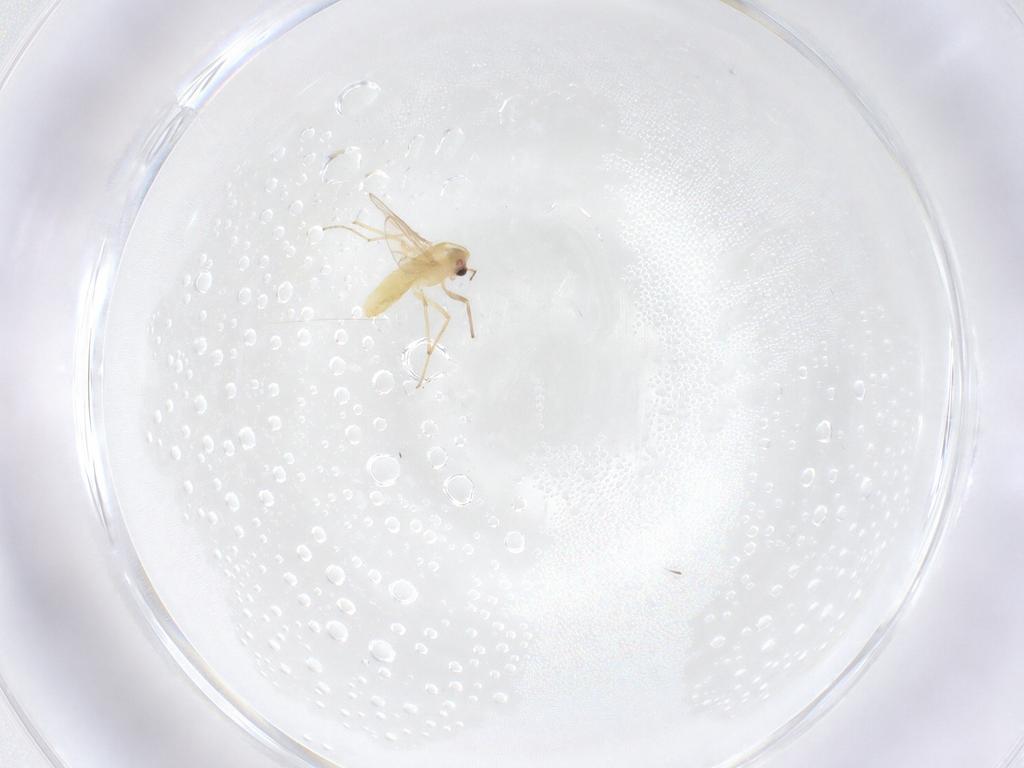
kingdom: Animalia
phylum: Arthropoda
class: Insecta
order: Diptera
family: Chironomidae
